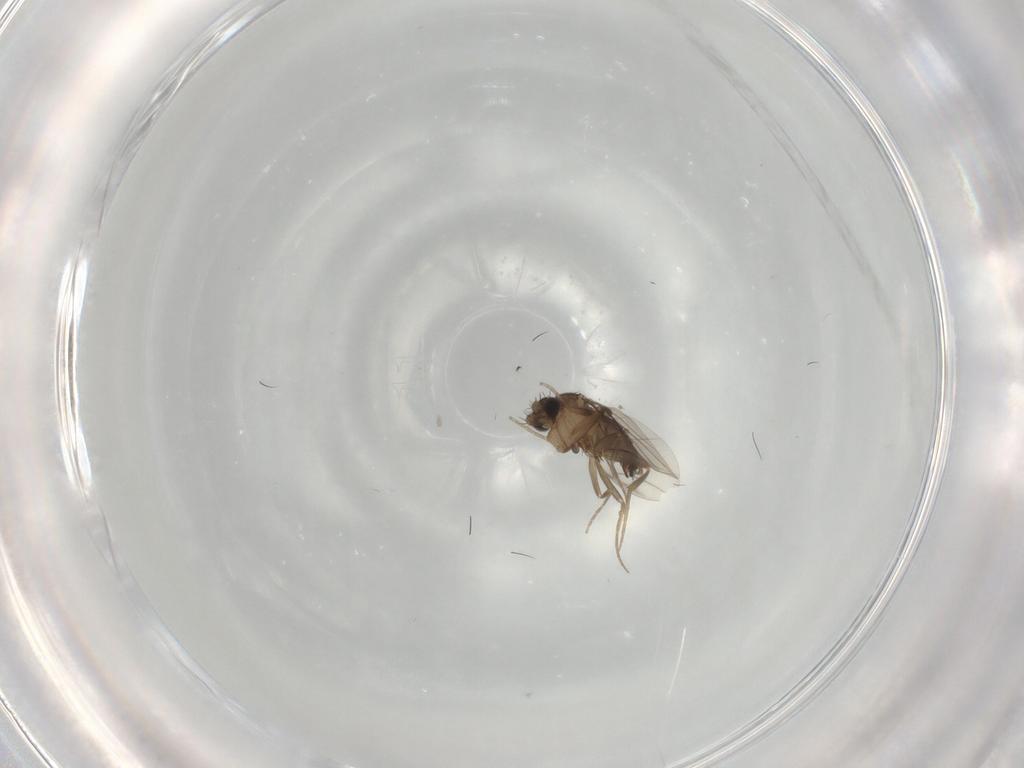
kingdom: Animalia
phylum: Arthropoda
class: Insecta
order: Diptera
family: Phoridae
